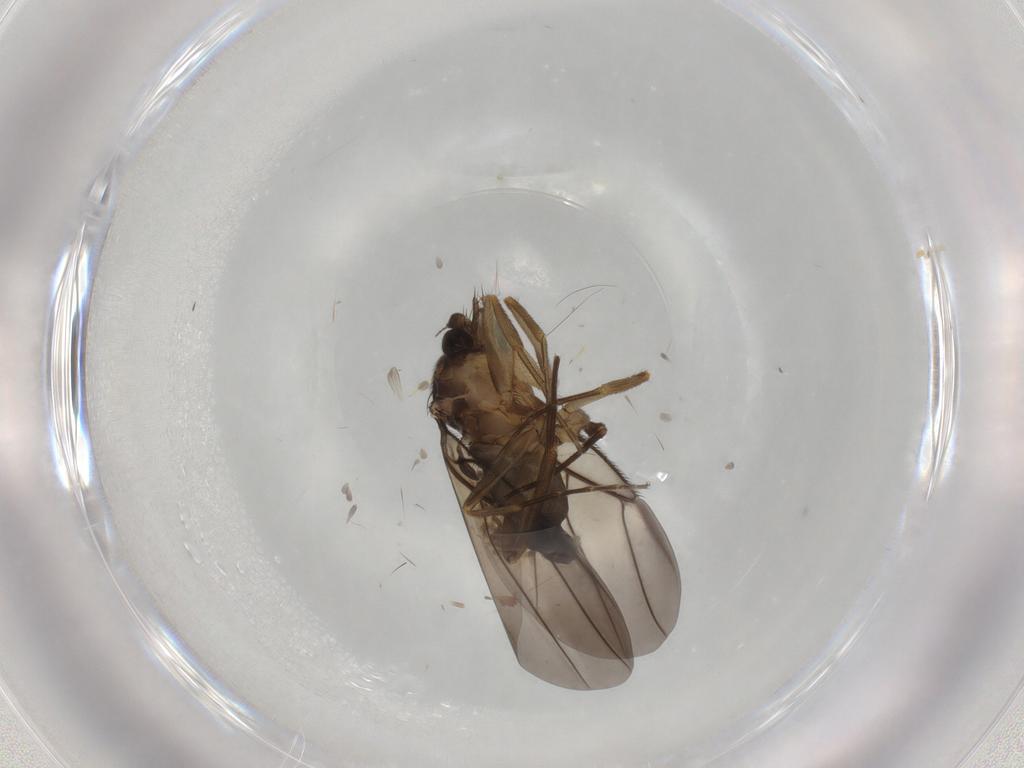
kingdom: Animalia
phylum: Arthropoda
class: Insecta
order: Diptera
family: Phoridae
